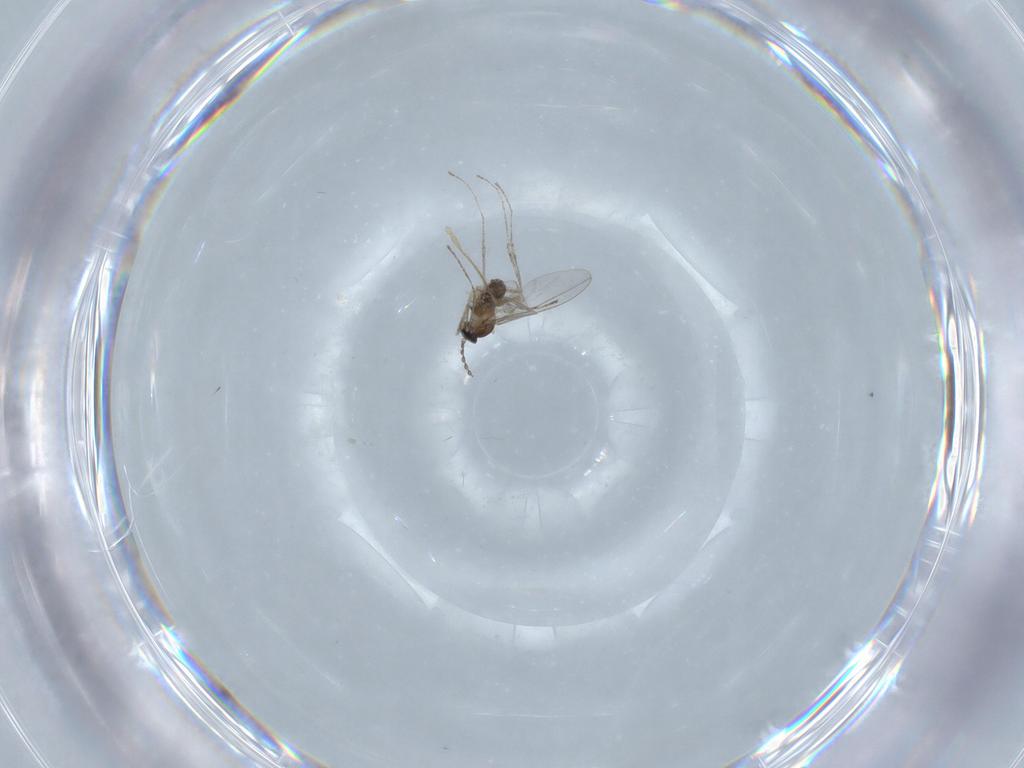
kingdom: Animalia
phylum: Arthropoda
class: Insecta
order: Diptera
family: Chironomidae
